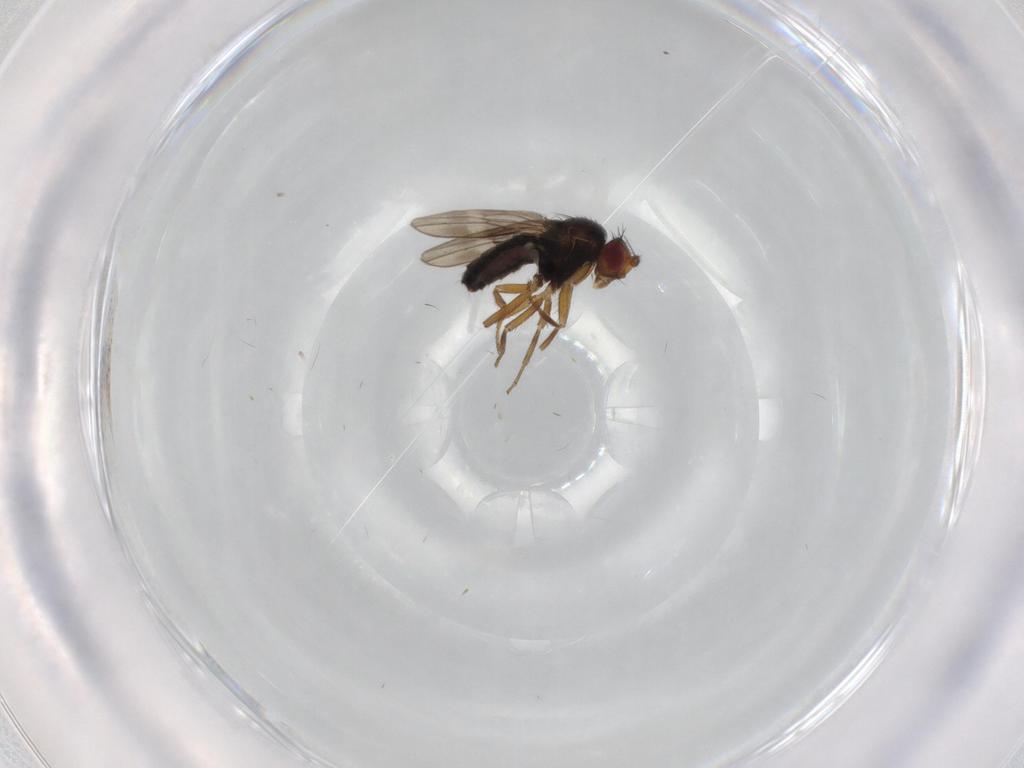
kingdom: Animalia
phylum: Arthropoda
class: Insecta
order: Diptera
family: Sphaeroceridae
